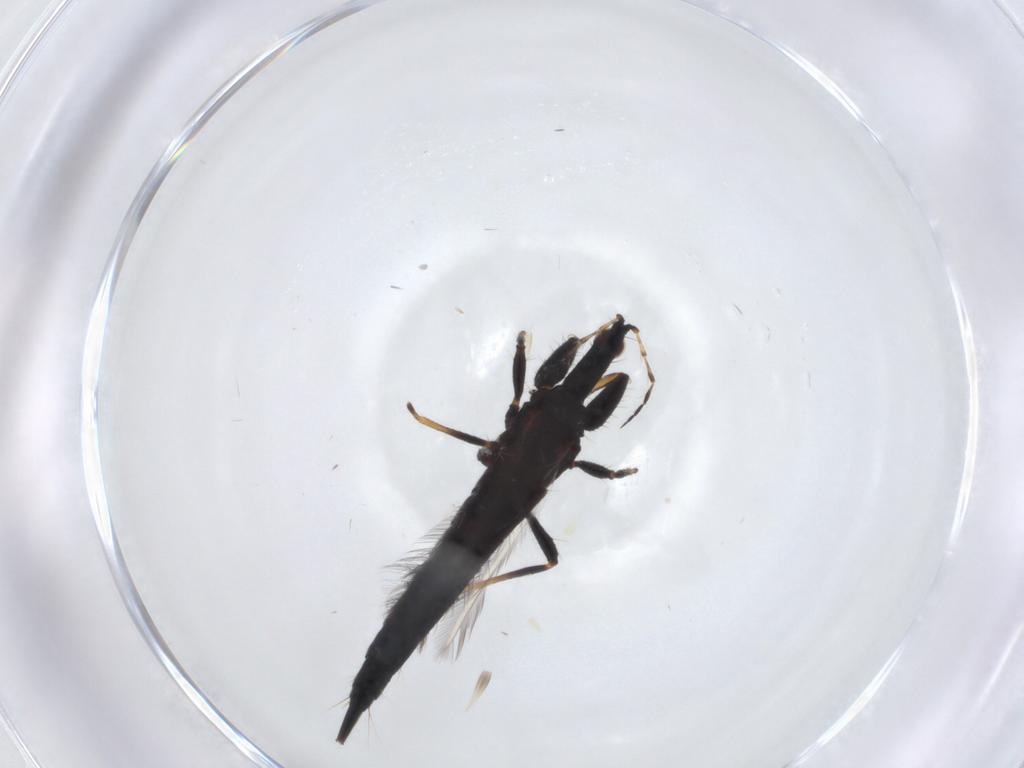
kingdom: Animalia
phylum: Arthropoda
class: Insecta
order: Thysanoptera
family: Phlaeothripidae
